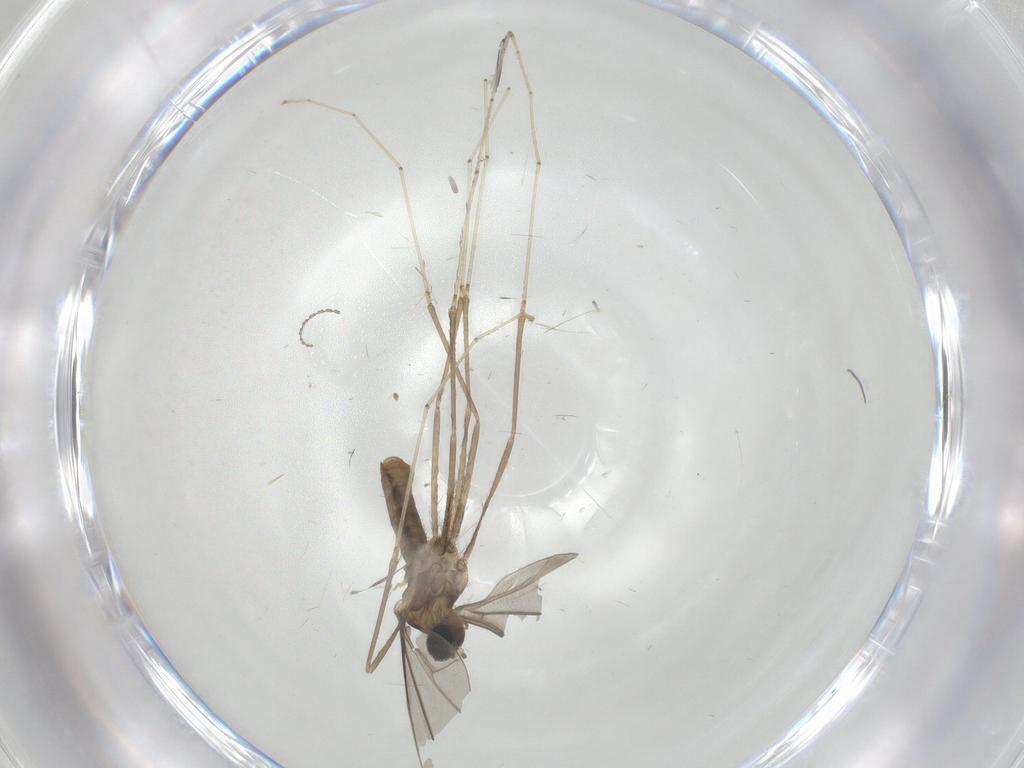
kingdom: Animalia
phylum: Arthropoda
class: Insecta
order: Diptera
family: Cecidomyiidae
